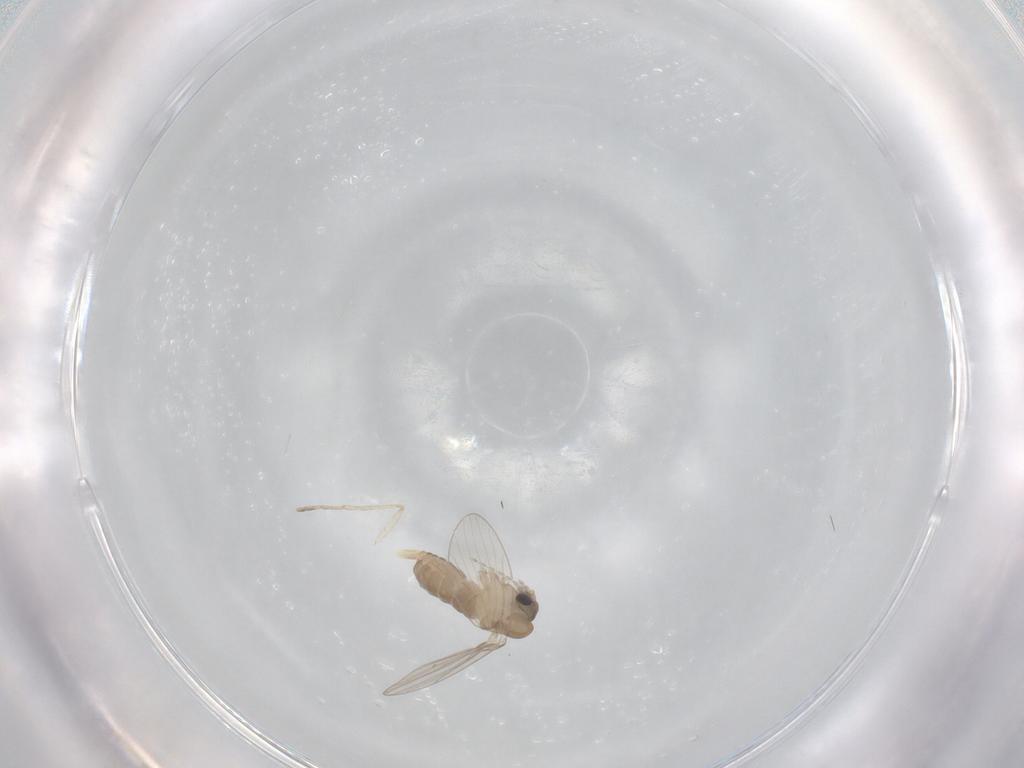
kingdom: Animalia
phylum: Arthropoda
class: Insecta
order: Diptera
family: Psychodidae
